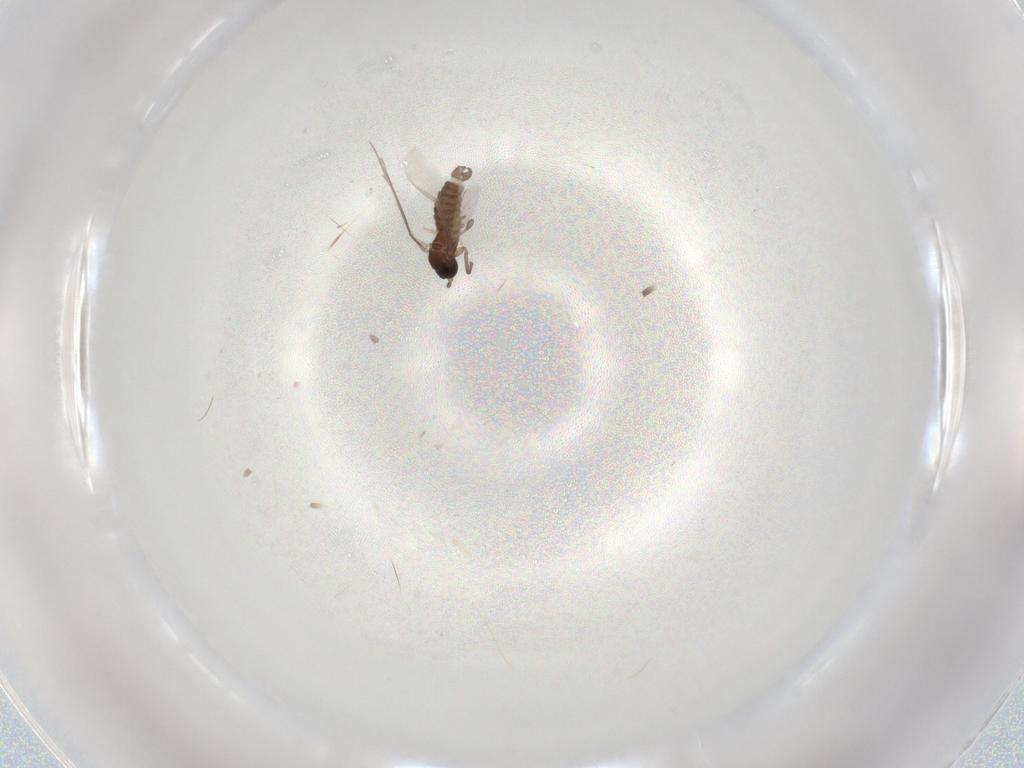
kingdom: Animalia
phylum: Arthropoda
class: Insecta
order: Diptera
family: Sciaridae
